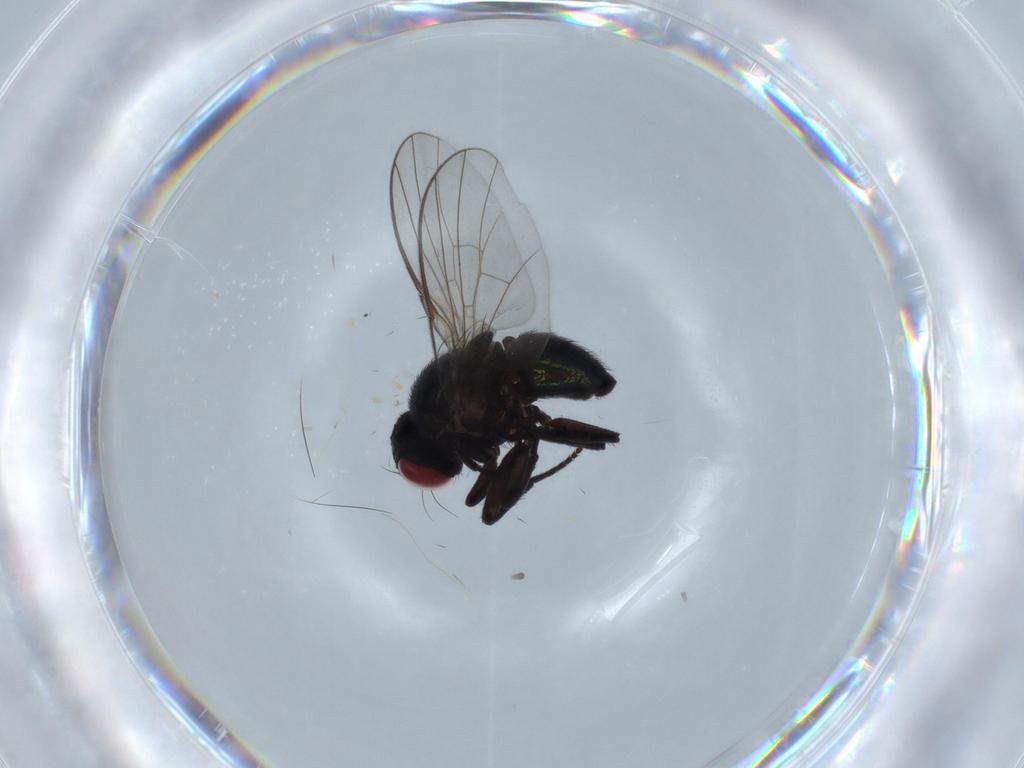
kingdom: Animalia
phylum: Arthropoda
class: Insecta
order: Diptera
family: Agromyzidae
